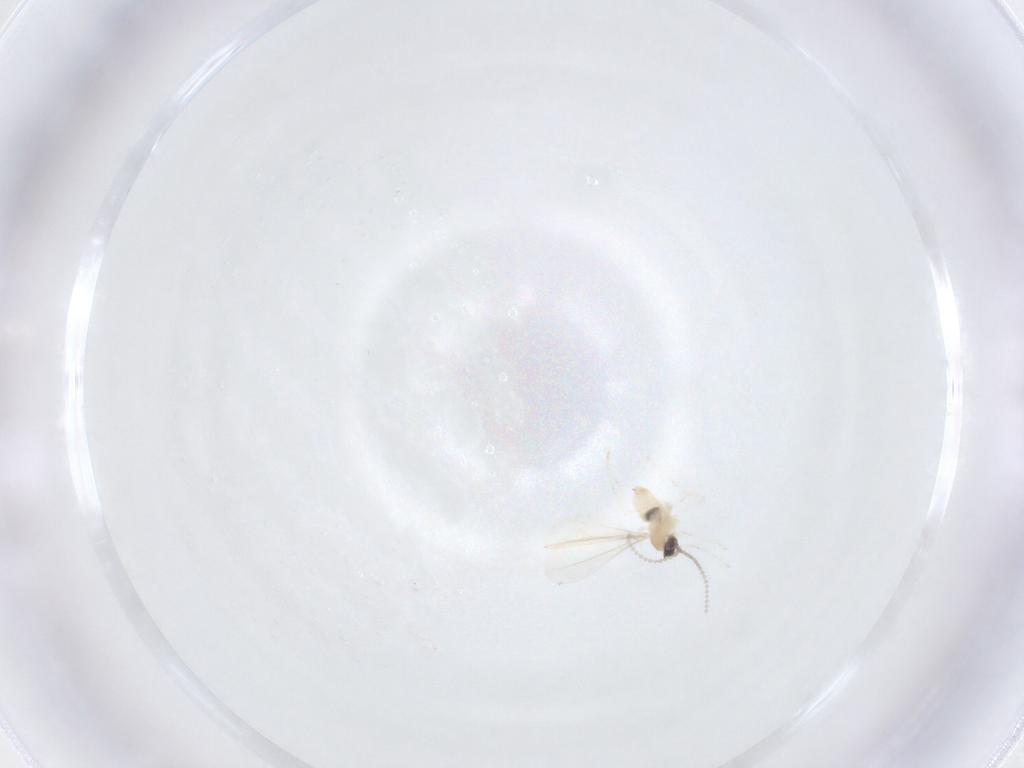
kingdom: Animalia
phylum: Arthropoda
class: Insecta
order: Diptera
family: Cecidomyiidae
